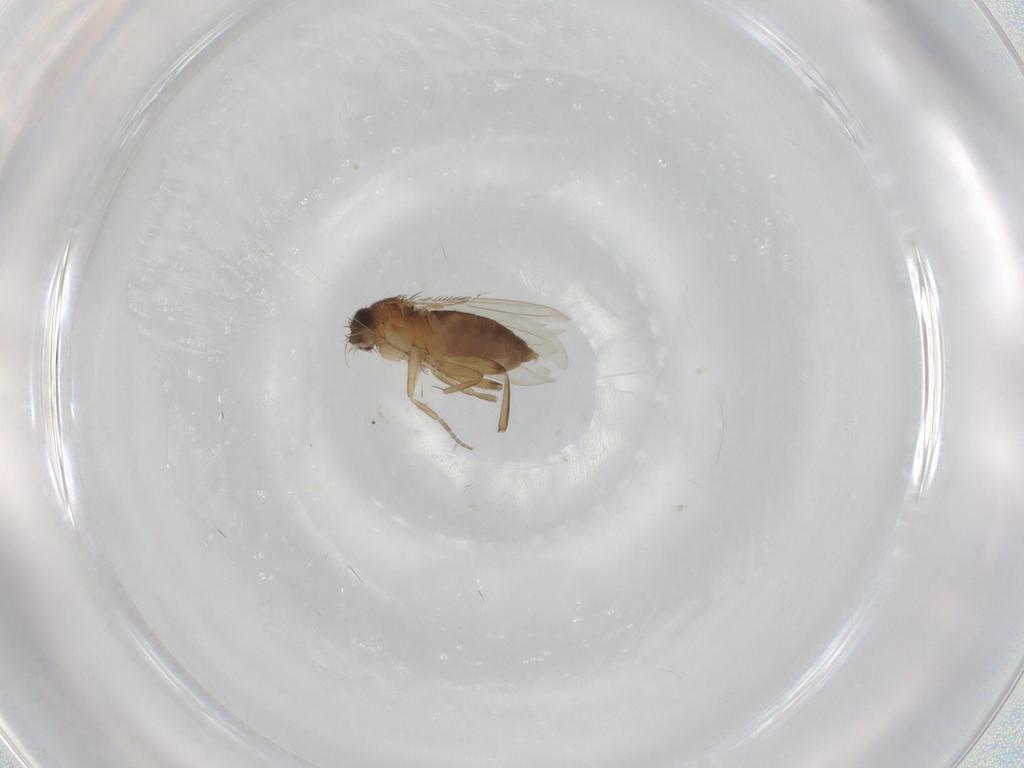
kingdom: Animalia
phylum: Arthropoda
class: Insecta
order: Diptera
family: Phoridae
